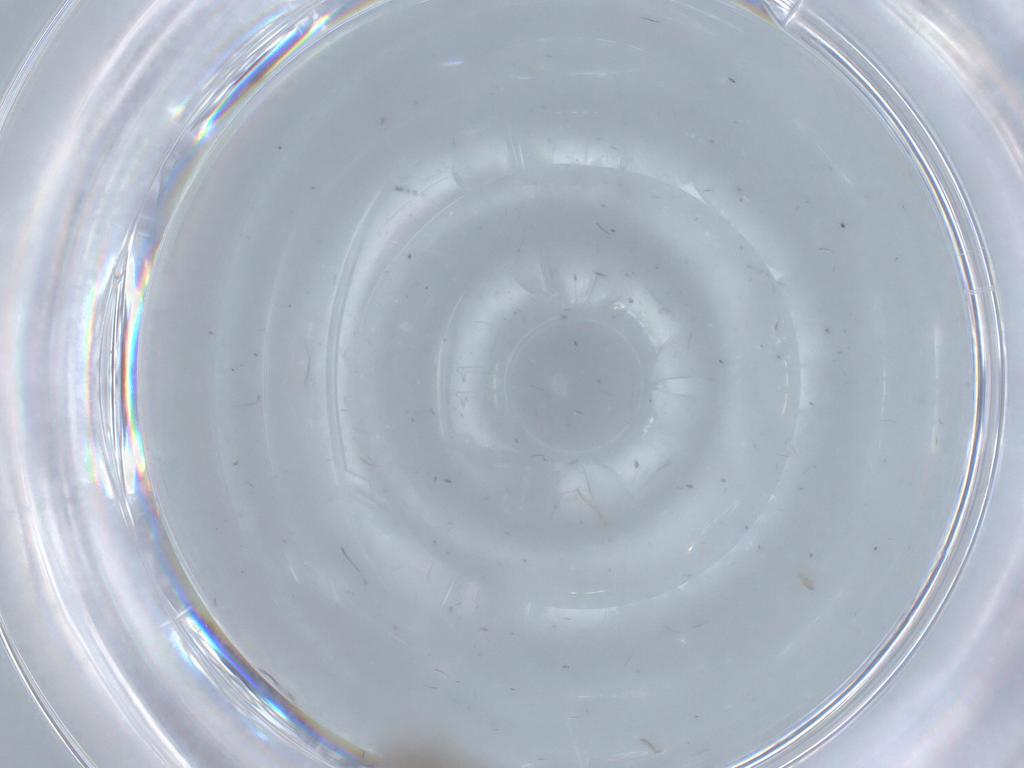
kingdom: Animalia
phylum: Arthropoda
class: Insecta
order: Diptera
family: Chironomidae
